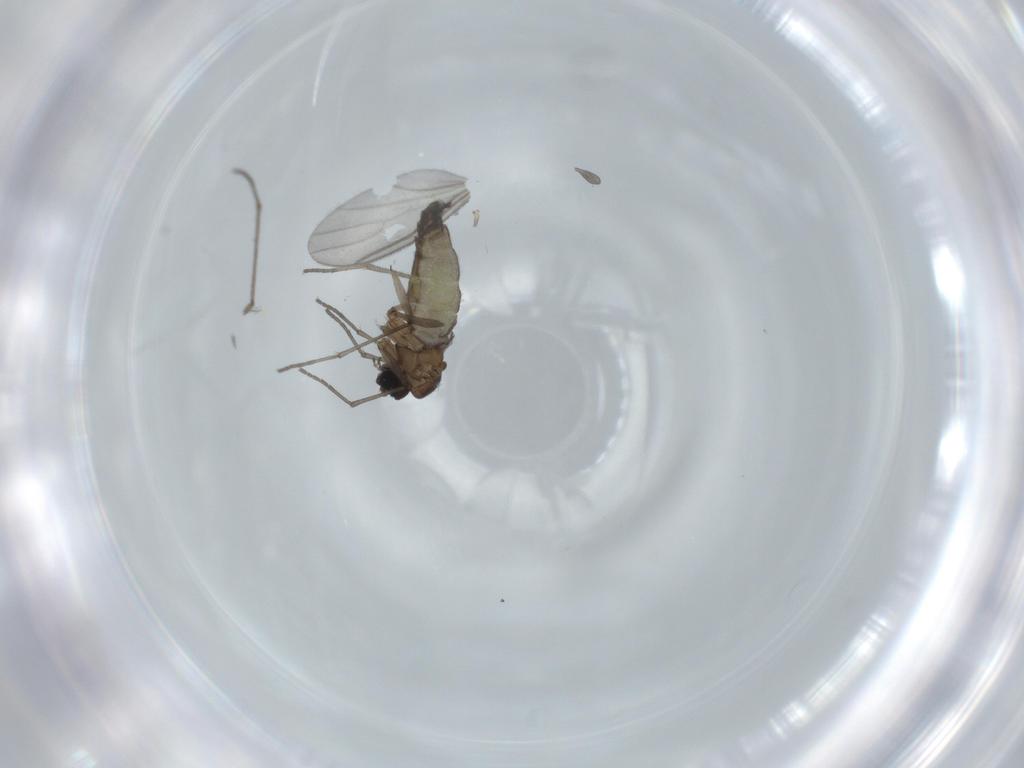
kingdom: Animalia
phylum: Arthropoda
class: Insecta
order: Diptera
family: Sciaridae
